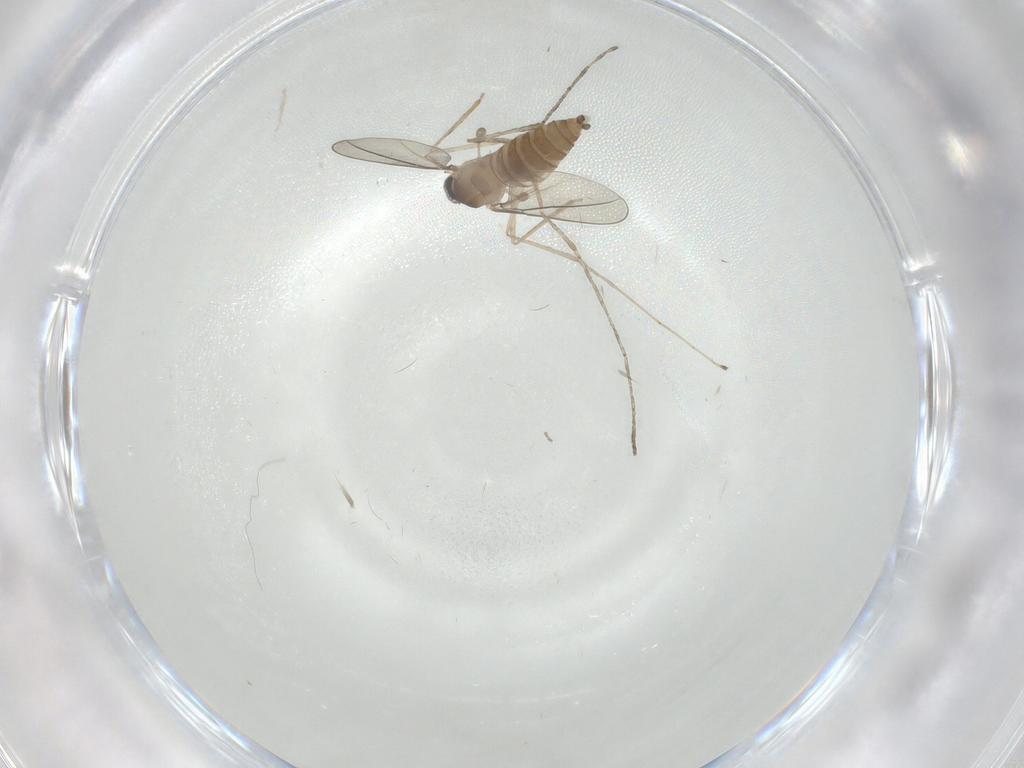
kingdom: Animalia
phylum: Arthropoda
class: Insecta
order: Diptera
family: Cecidomyiidae
